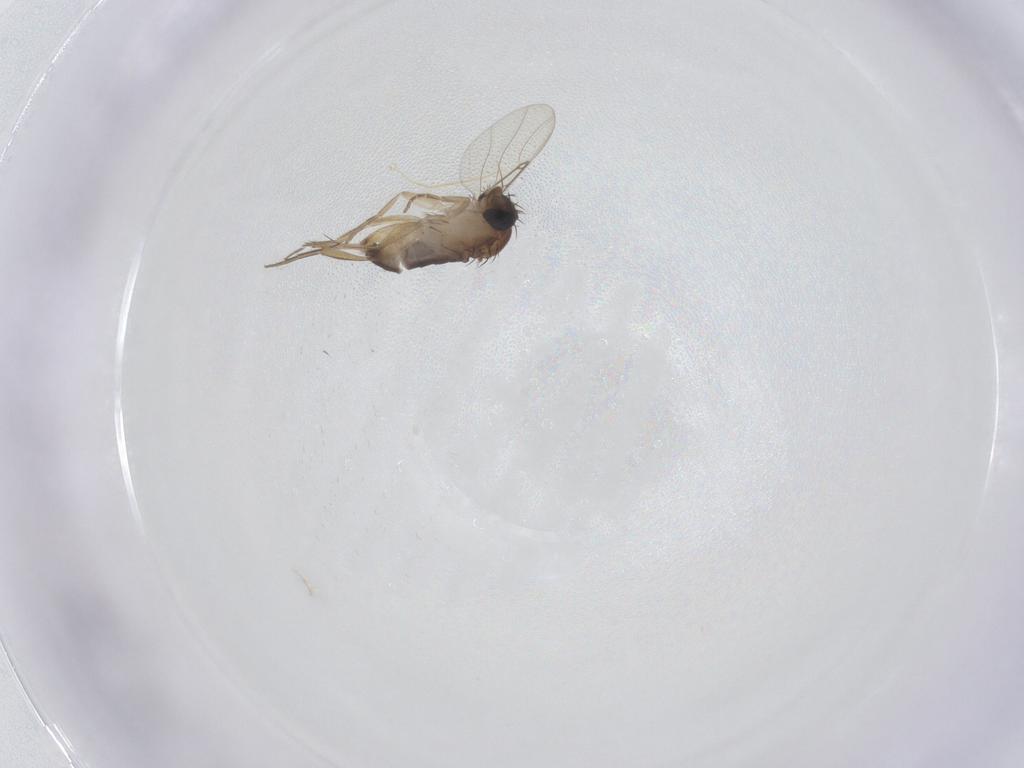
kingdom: Animalia
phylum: Arthropoda
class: Insecta
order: Diptera
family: Phoridae
